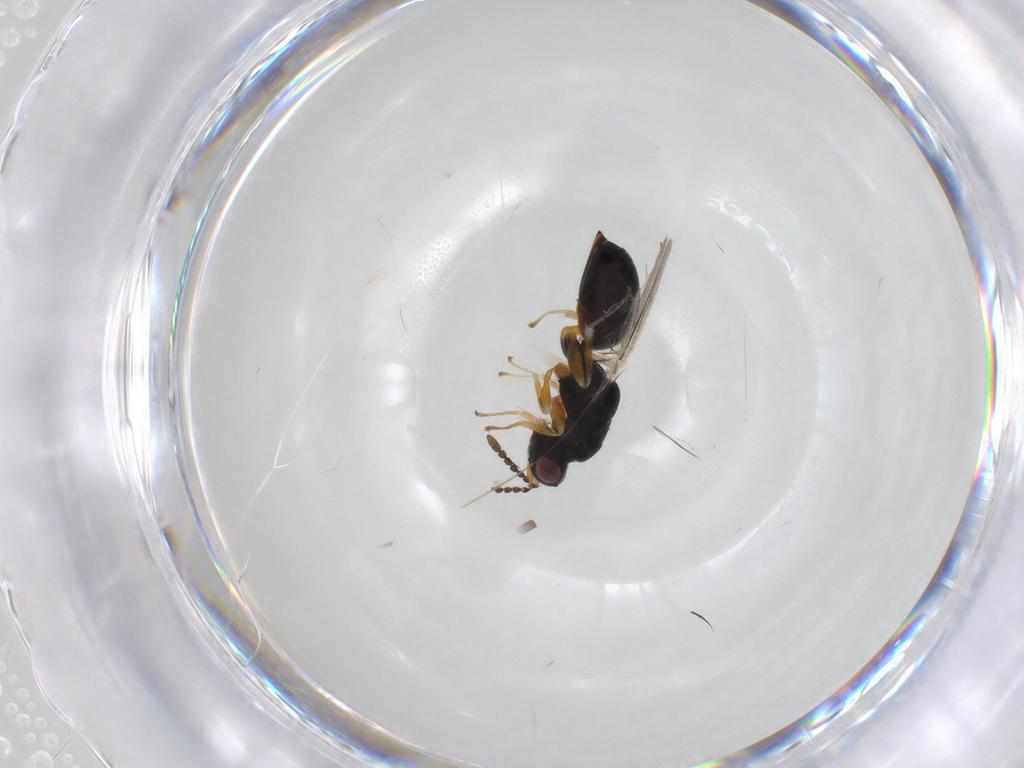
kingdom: Animalia
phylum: Arthropoda
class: Insecta
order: Hymenoptera
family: Eurytomidae
